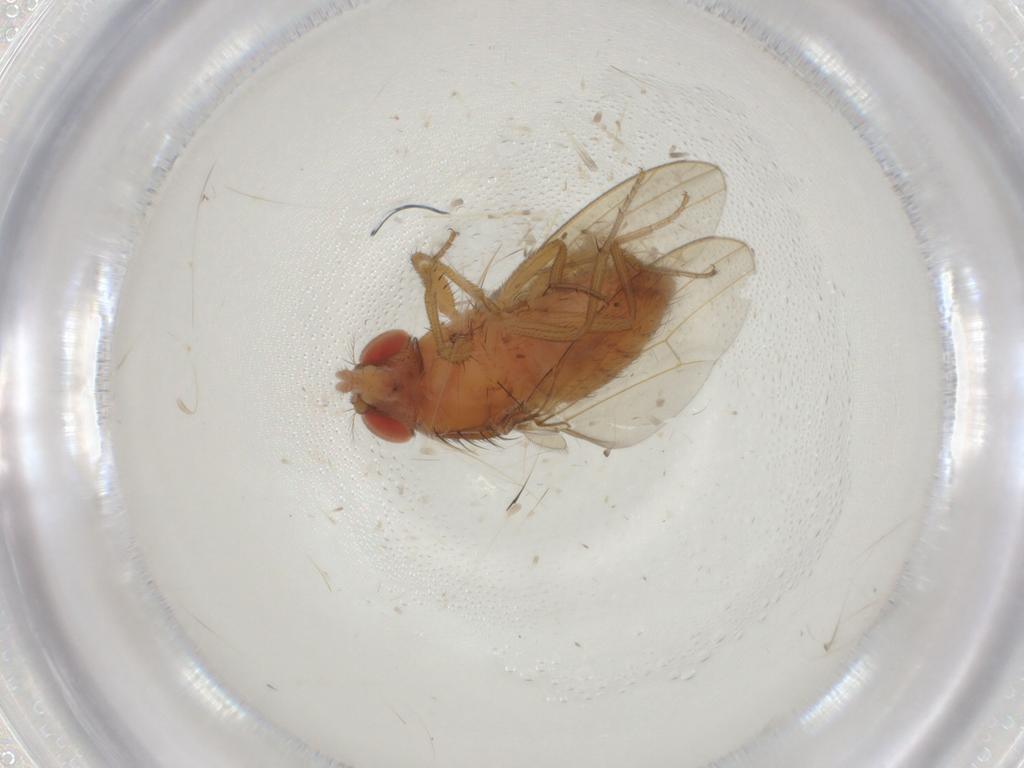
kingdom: Animalia
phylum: Arthropoda
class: Insecta
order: Diptera
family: Drosophilidae
